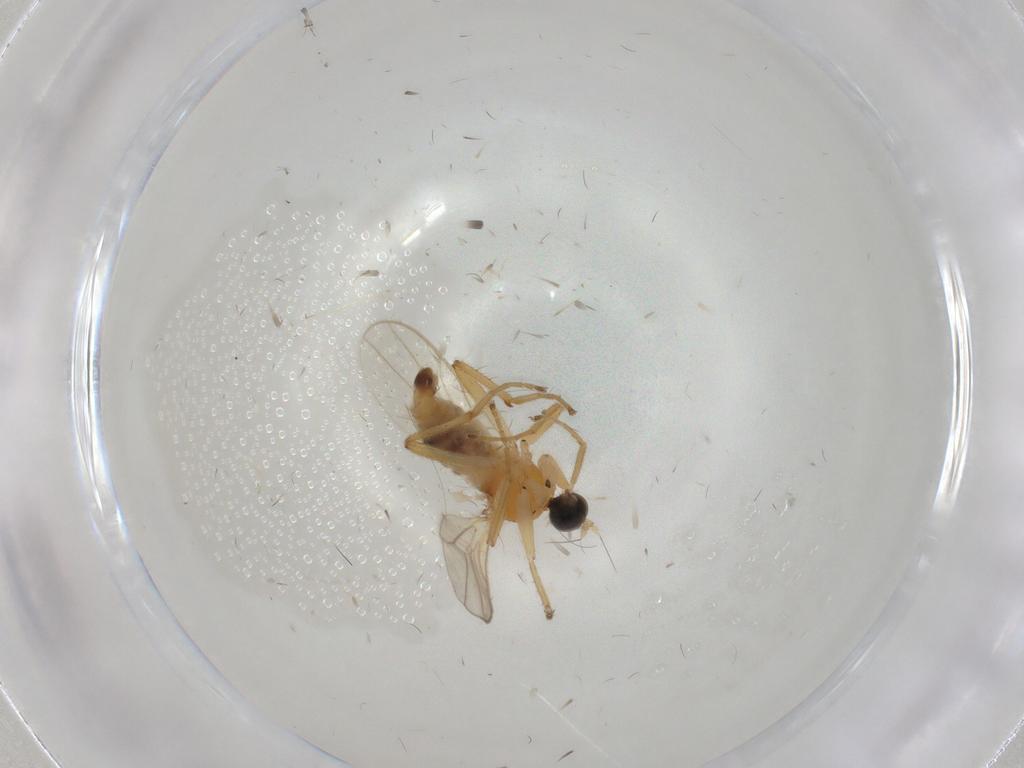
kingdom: Animalia
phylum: Arthropoda
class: Insecta
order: Diptera
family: Hybotidae
